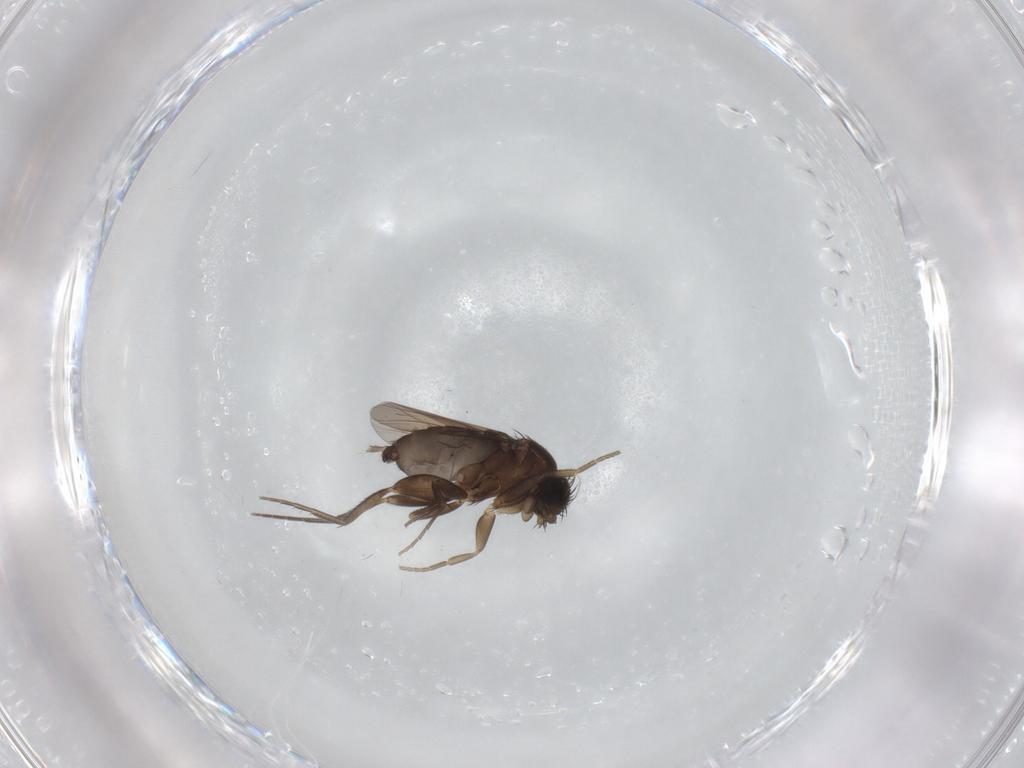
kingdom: Animalia
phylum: Arthropoda
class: Insecta
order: Diptera
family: Phoridae
